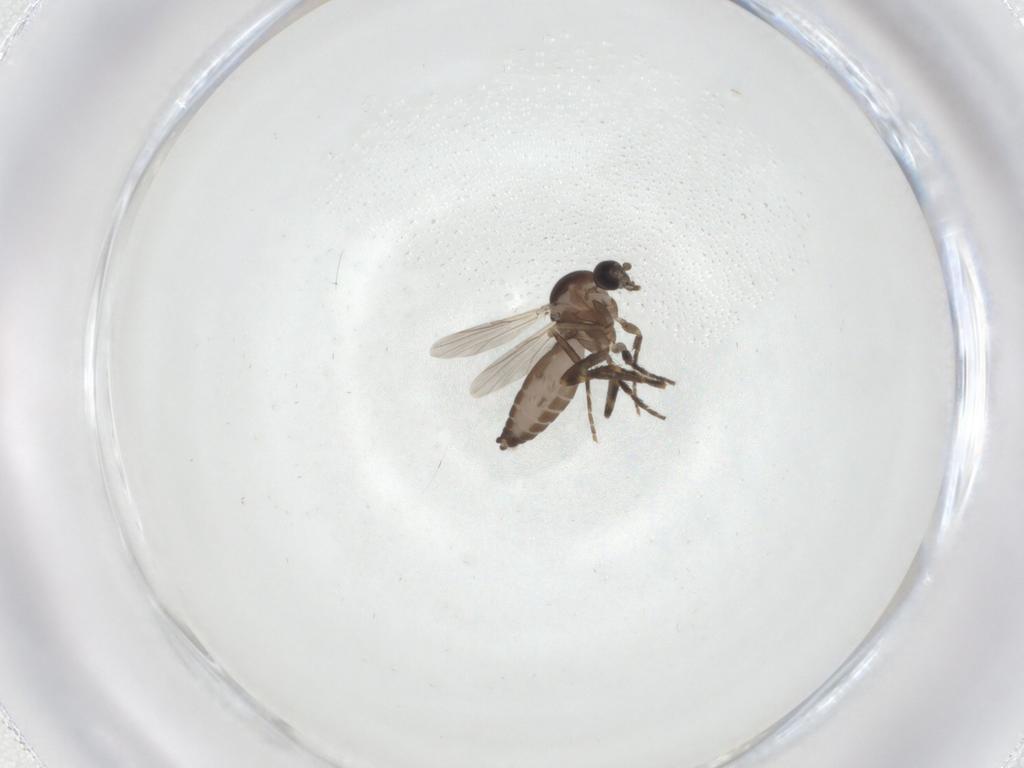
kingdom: Animalia
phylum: Arthropoda
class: Insecta
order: Diptera
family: Ceratopogonidae
